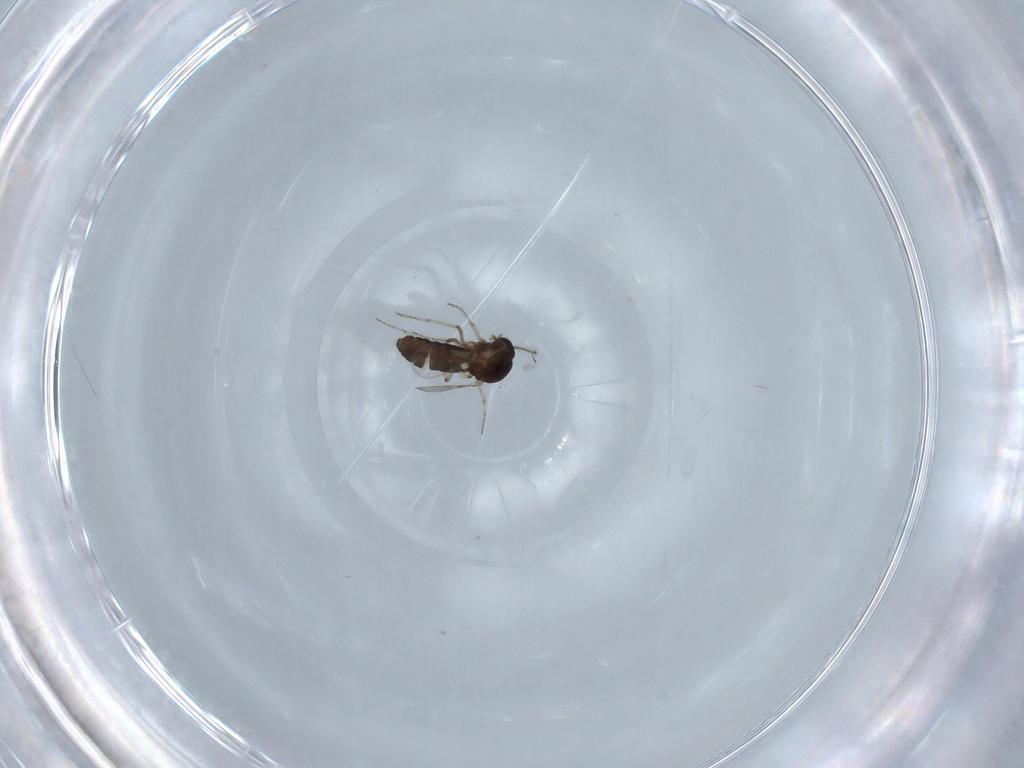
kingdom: Animalia
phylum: Arthropoda
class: Insecta
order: Diptera
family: Ceratopogonidae
